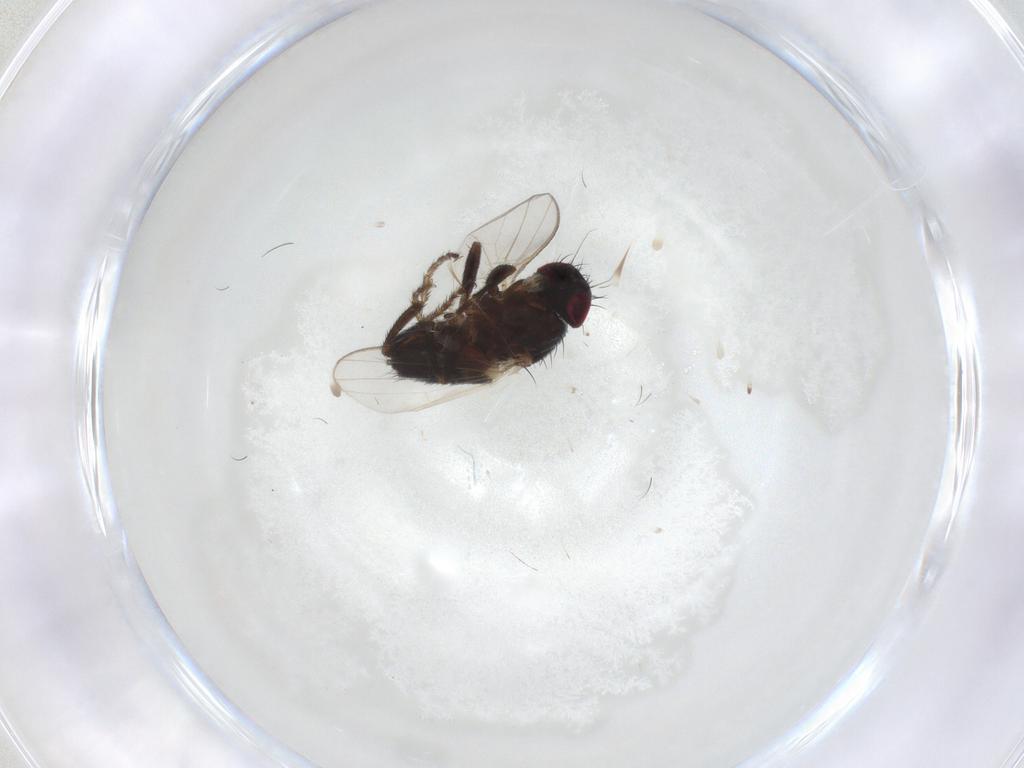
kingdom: Animalia
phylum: Arthropoda
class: Insecta
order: Diptera
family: Milichiidae
